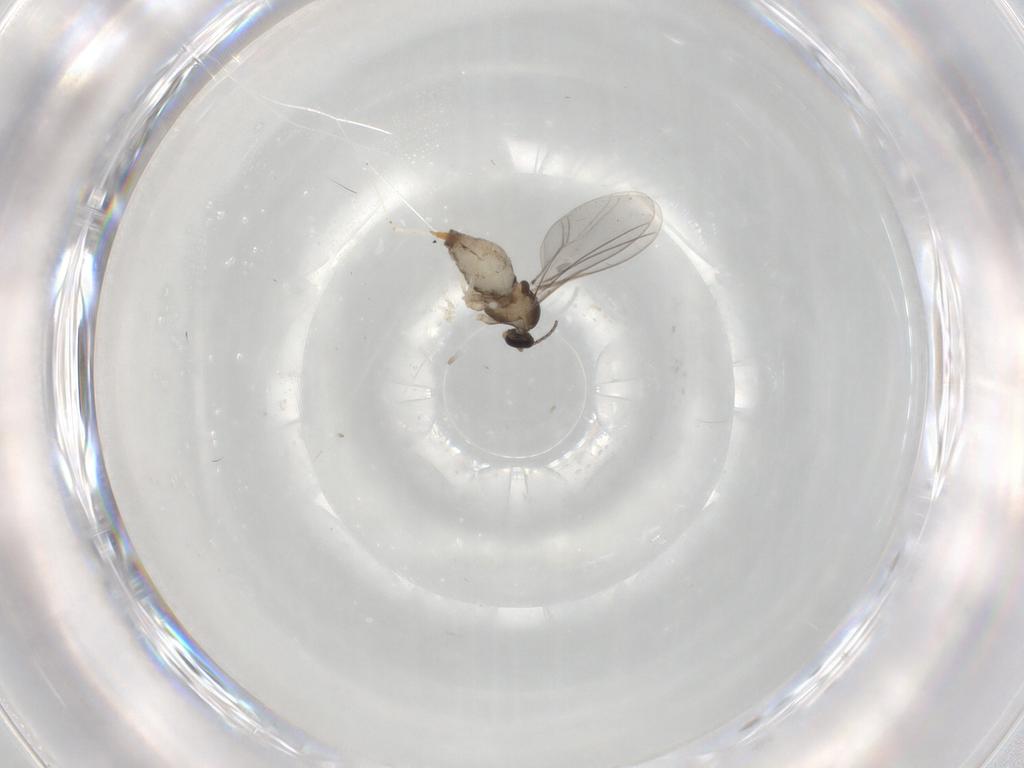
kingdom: Animalia
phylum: Arthropoda
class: Insecta
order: Diptera
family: Cecidomyiidae
